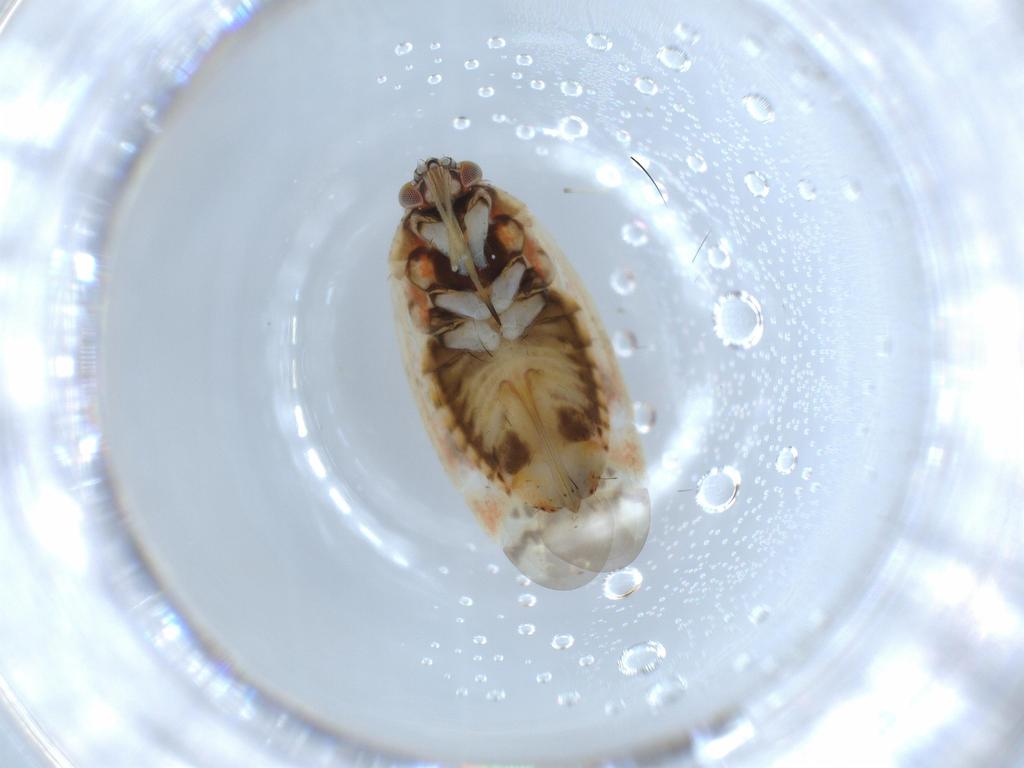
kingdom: Animalia
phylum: Arthropoda
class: Insecta
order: Hemiptera
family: Aphididae
